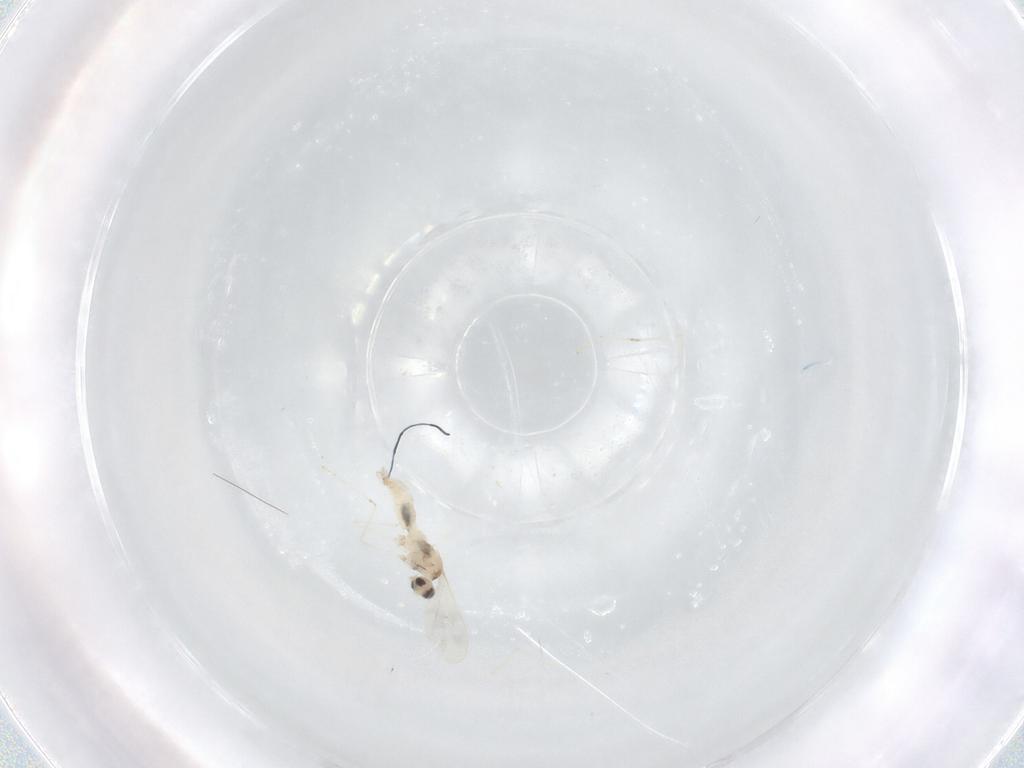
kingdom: Animalia
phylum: Arthropoda
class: Insecta
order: Diptera
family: Cecidomyiidae
